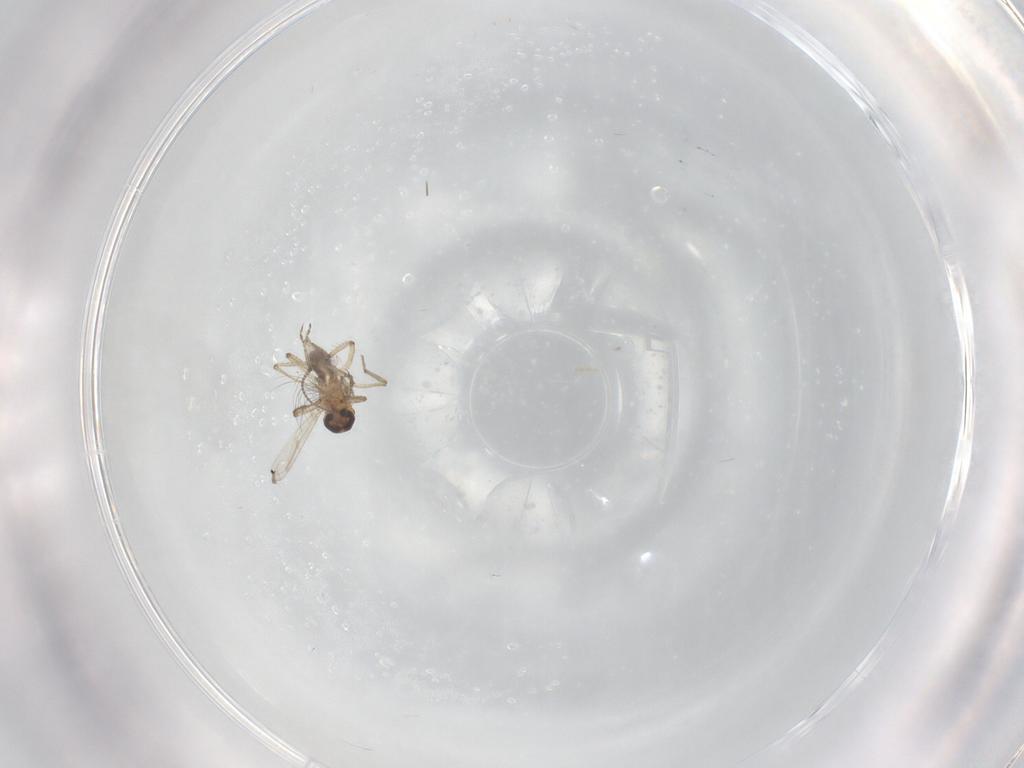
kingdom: Animalia
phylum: Arthropoda
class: Insecta
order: Diptera
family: Ceratopogonidae
